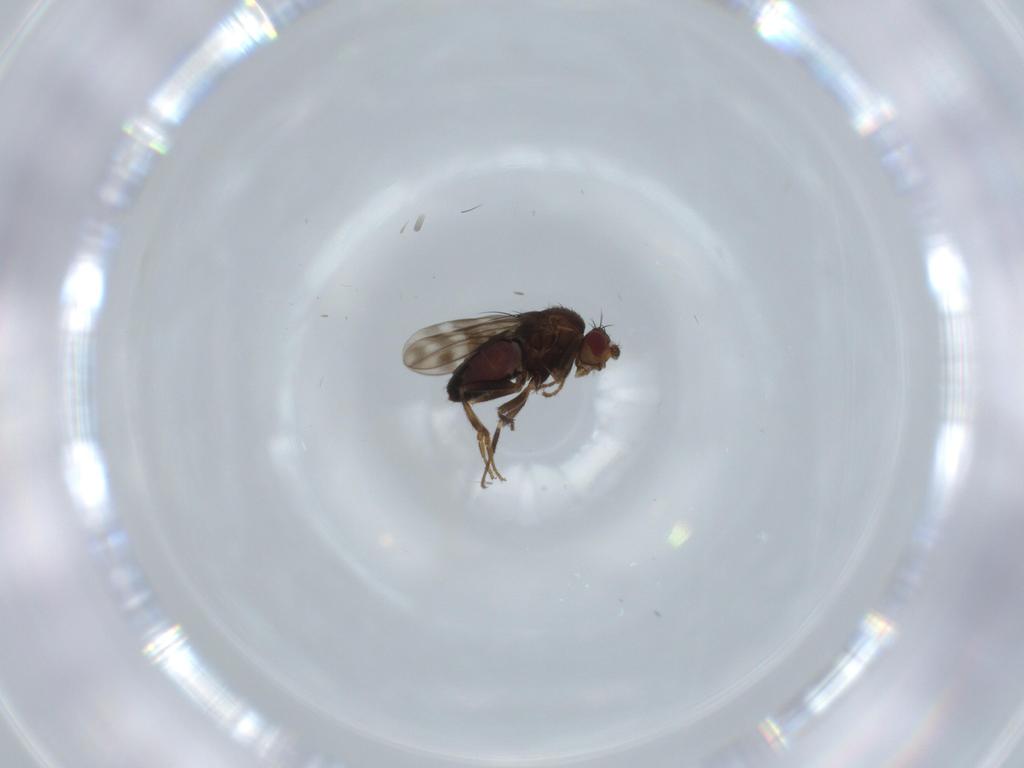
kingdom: Animalia
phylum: Arthropoda
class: Insecta
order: Diptera
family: Sphaeroceridae
